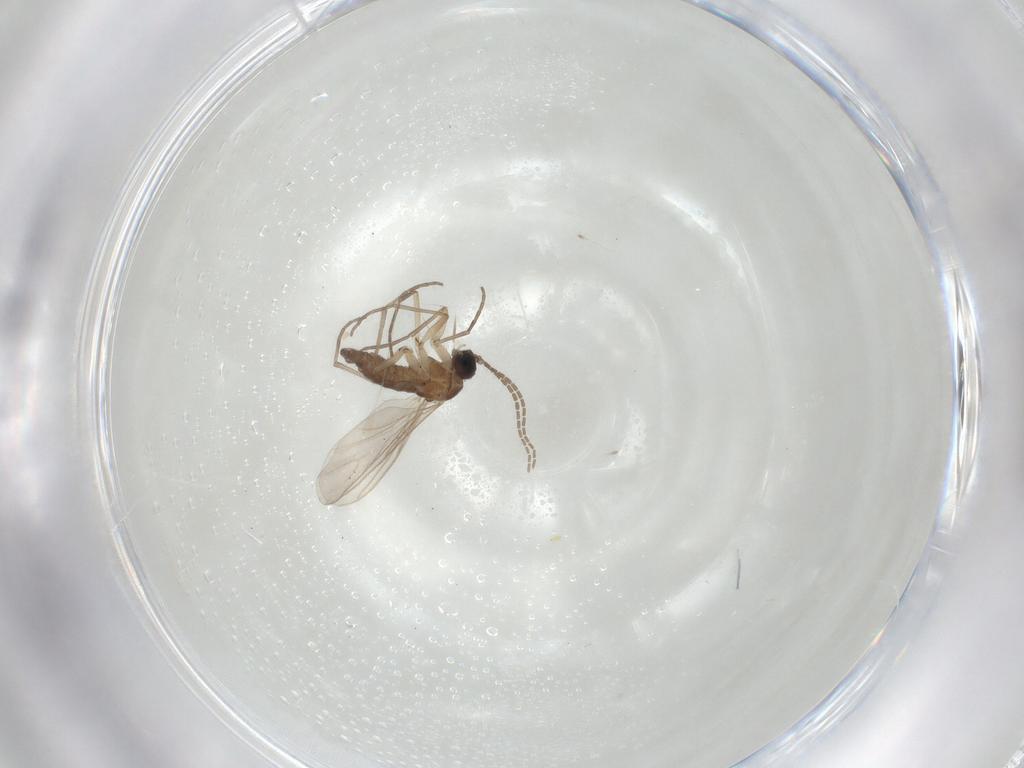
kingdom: Animalia
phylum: Arthropoda
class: Insecta
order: Diptera
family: Sciaridae
